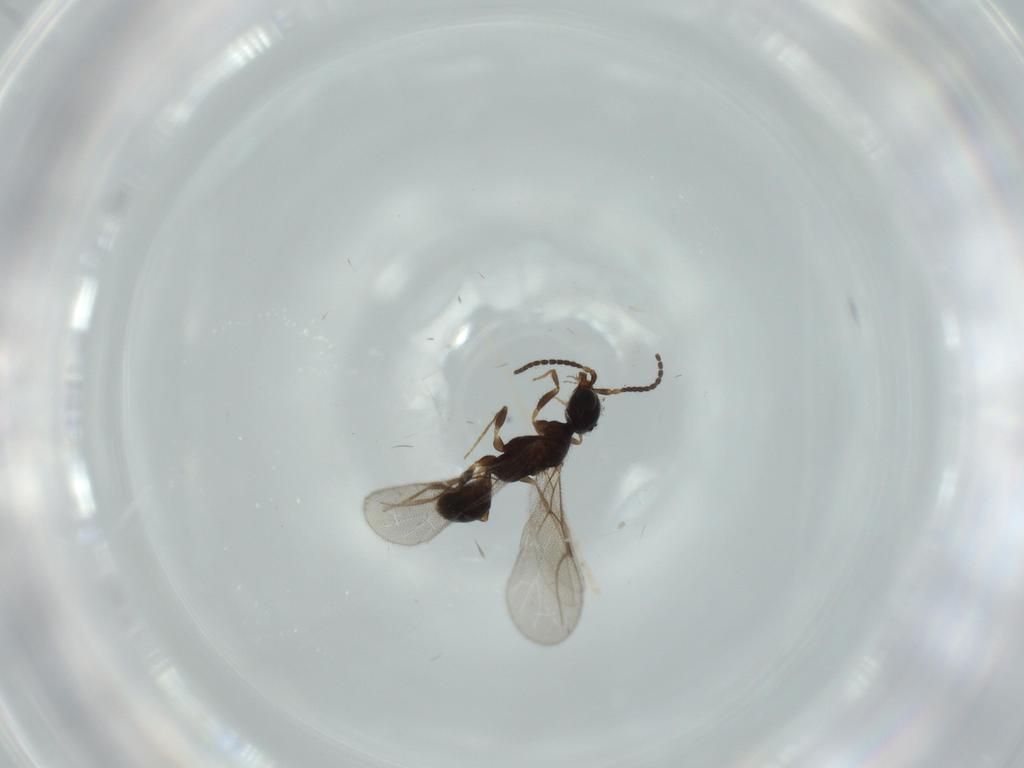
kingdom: Animalia
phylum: Arthropoda
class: Insecta
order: Hymenoptera
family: Bethylidae
